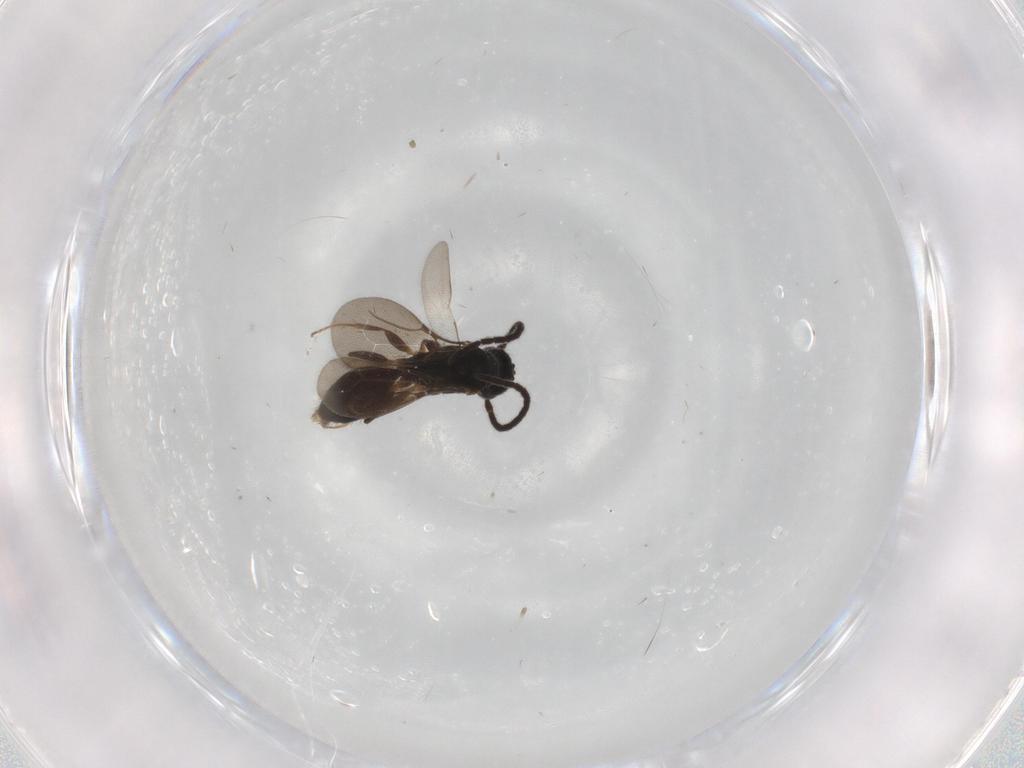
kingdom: Animalia
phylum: Arthropoda
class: Insecta
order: Hymenoptera
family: Bethylidae
